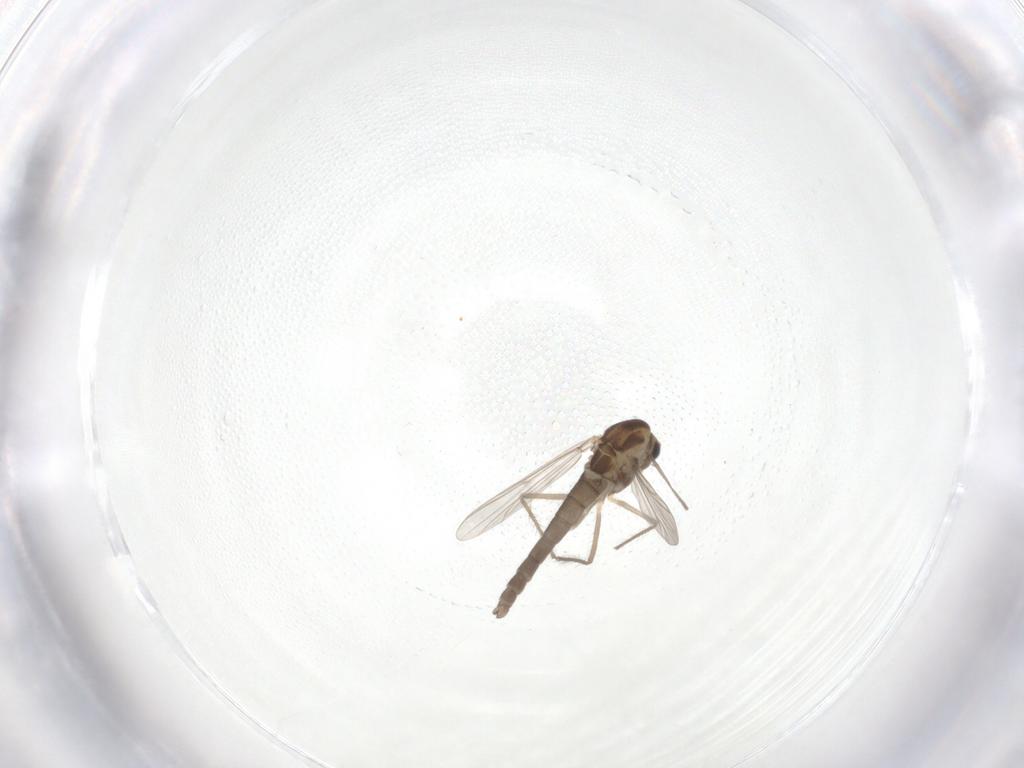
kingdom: Animalia
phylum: Arthropoda
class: Insecta
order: Diptera
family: Chironomidae
